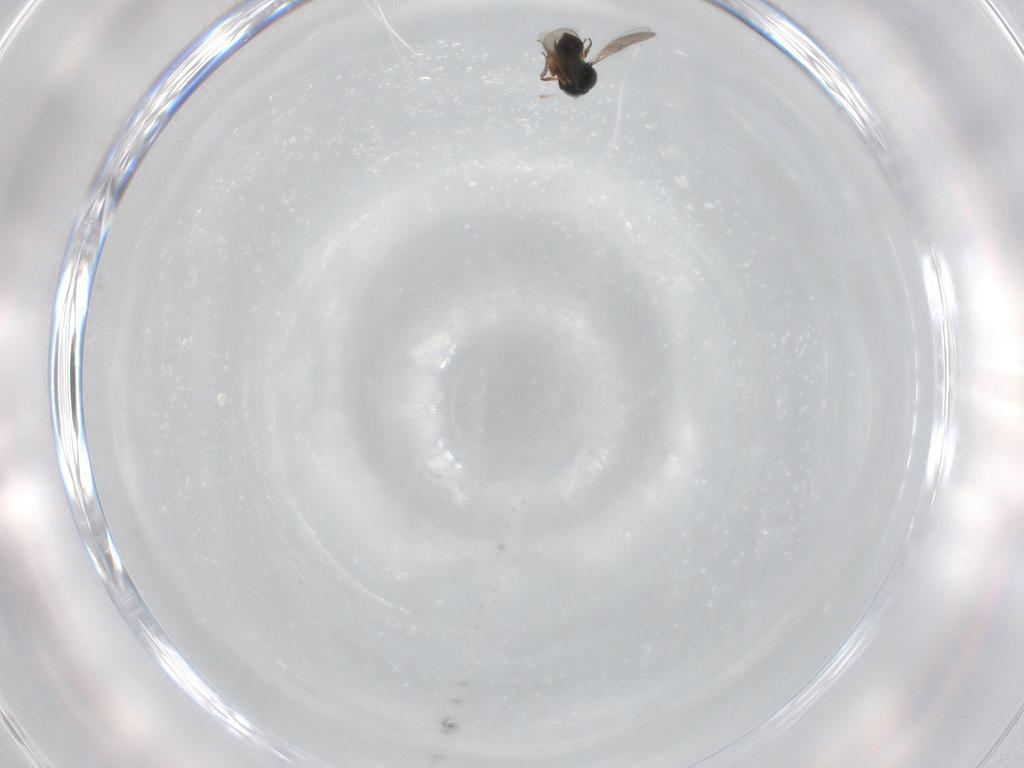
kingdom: Animalia
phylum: Arthropoda
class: Insecta
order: Hymenoptera
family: Scelionidae
